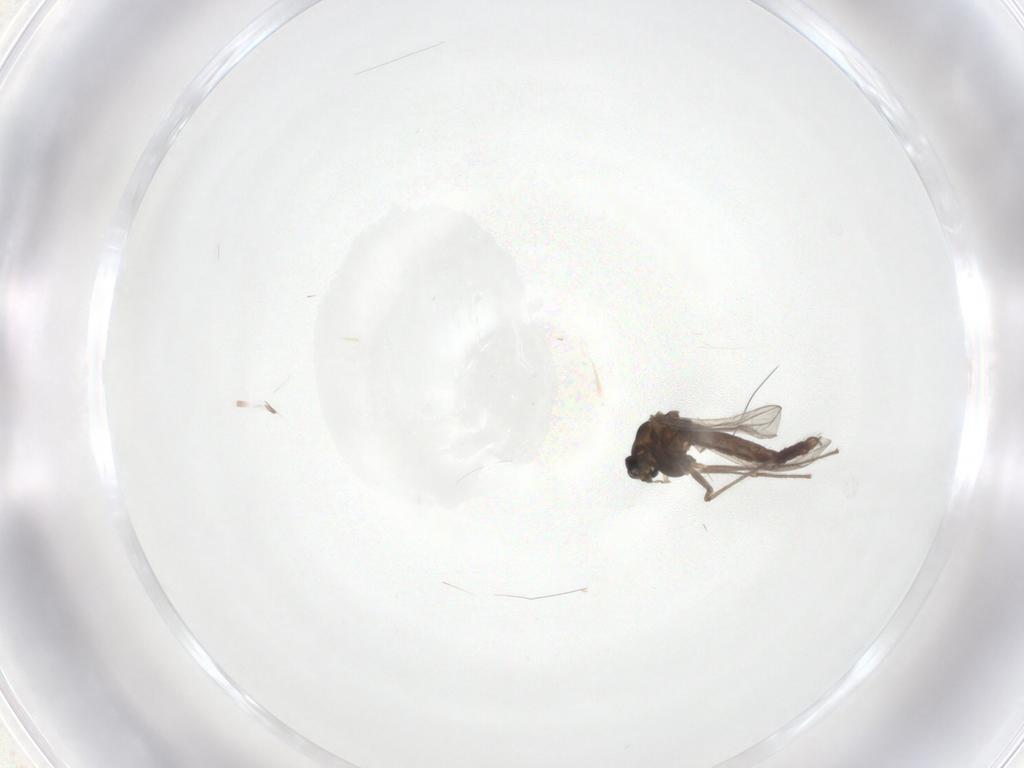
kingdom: Animalia
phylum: Arthropoda
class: Insecta
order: Diptera
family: Chironomidae
